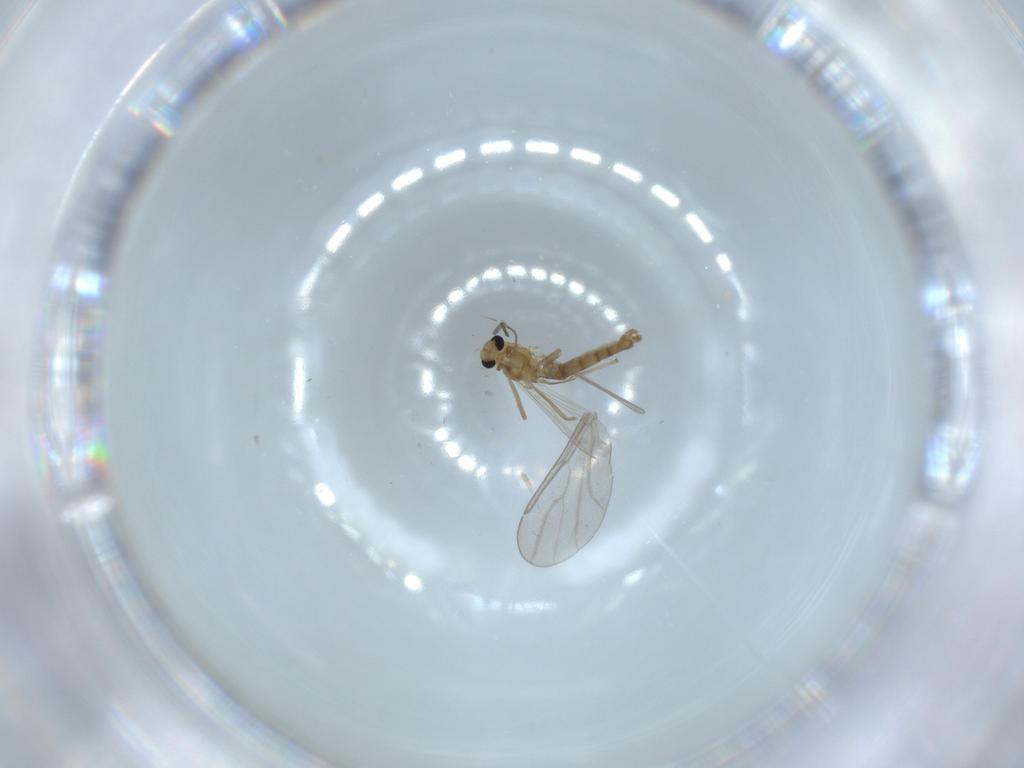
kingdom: Animalia
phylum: Arthropoda
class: Insecta
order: Diptera
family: Chironomidae
